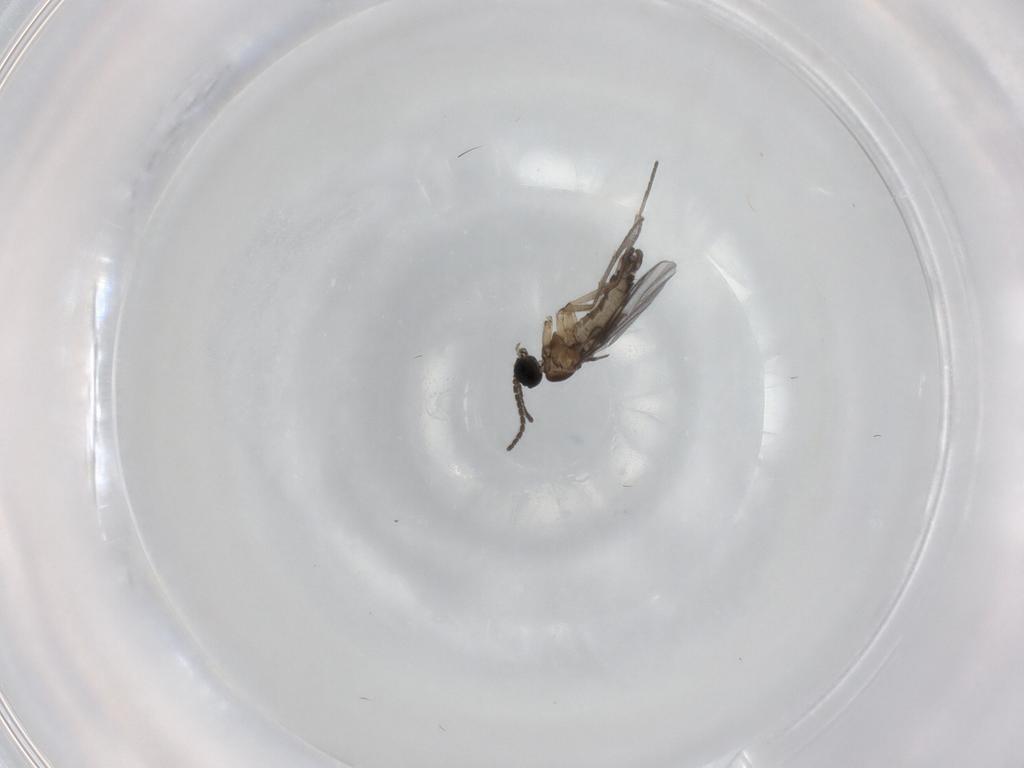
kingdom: Animalia
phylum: Arthropoda
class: Insecta
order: Diptera
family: Sciaridae
